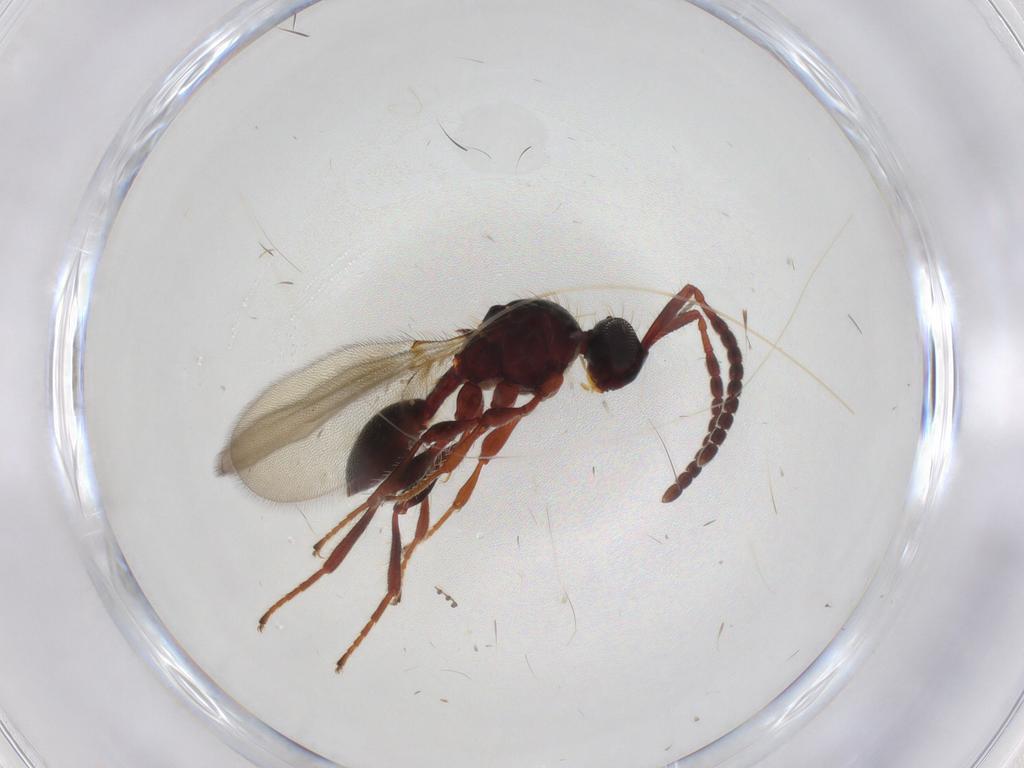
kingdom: Animalia
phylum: Arthropoda
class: Insecta
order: Hymenoptera
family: Diapriidae
